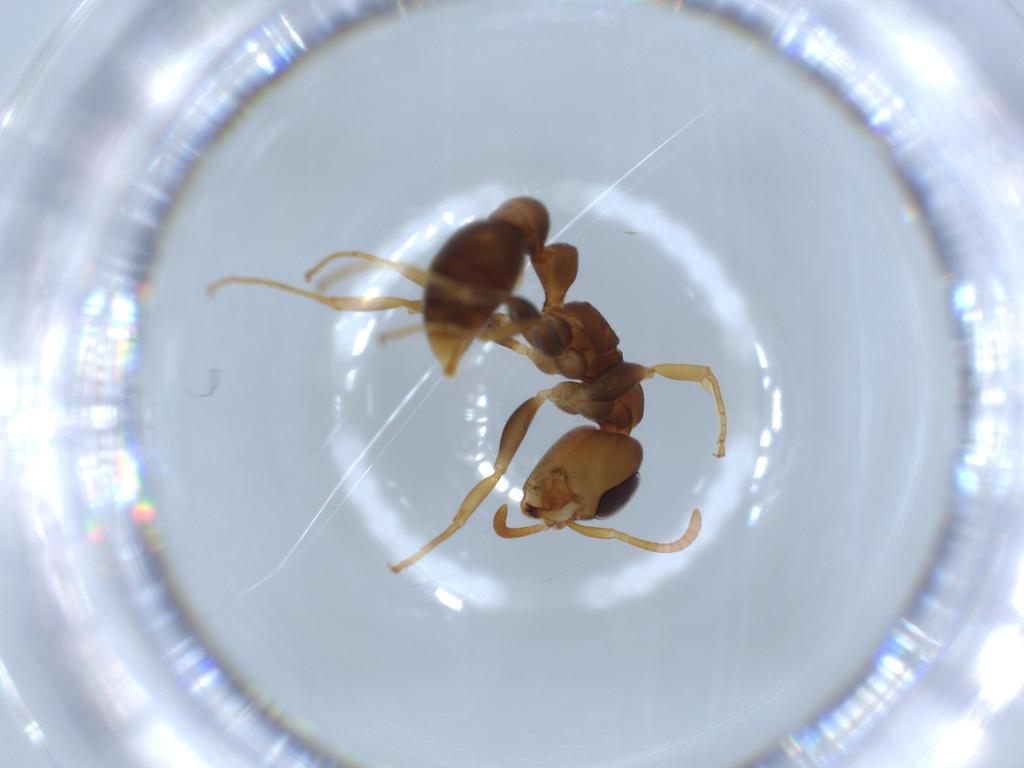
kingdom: Animalia
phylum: Arthropoda
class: Insecta
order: Hymenoptera
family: Formicidae
